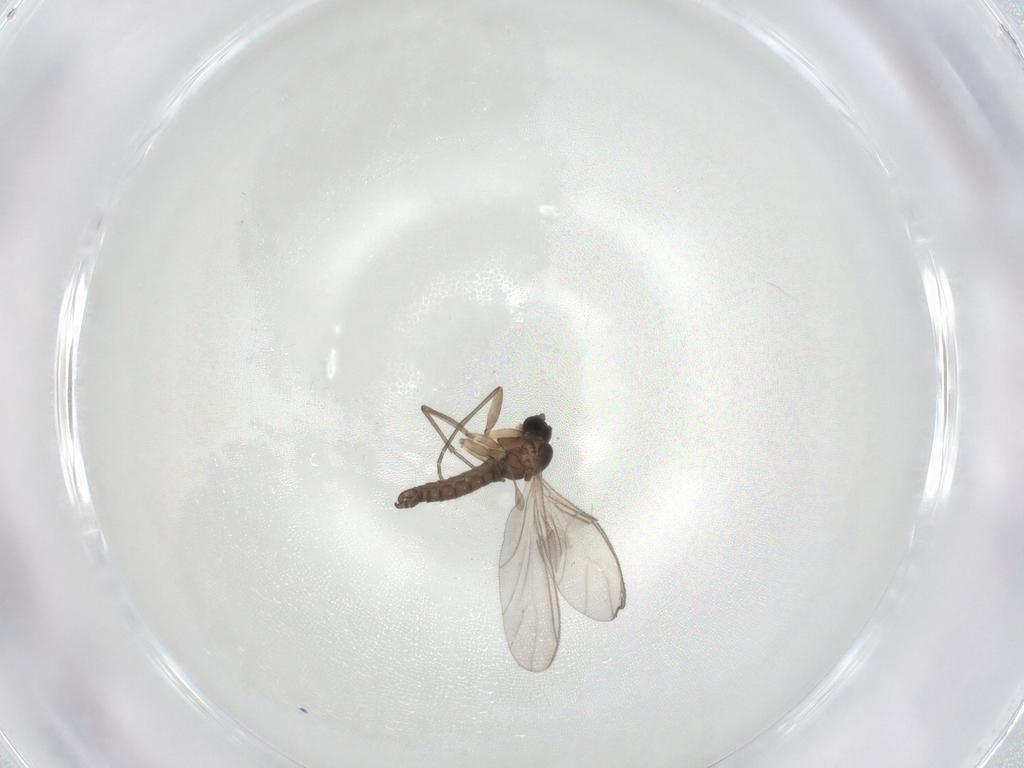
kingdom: Animalia
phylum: Arthropoda
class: Insecta
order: Diptera
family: Sciaridae
